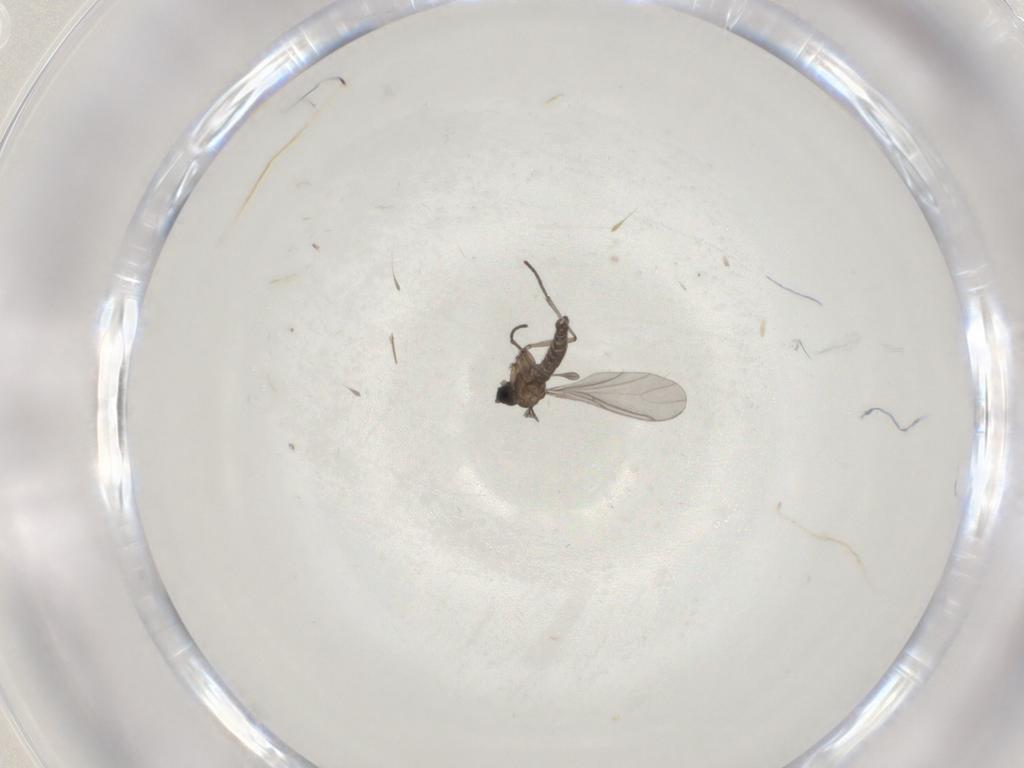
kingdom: Animalia
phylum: Arthropoda
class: Insecta
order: Diptera
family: Sciaridae
